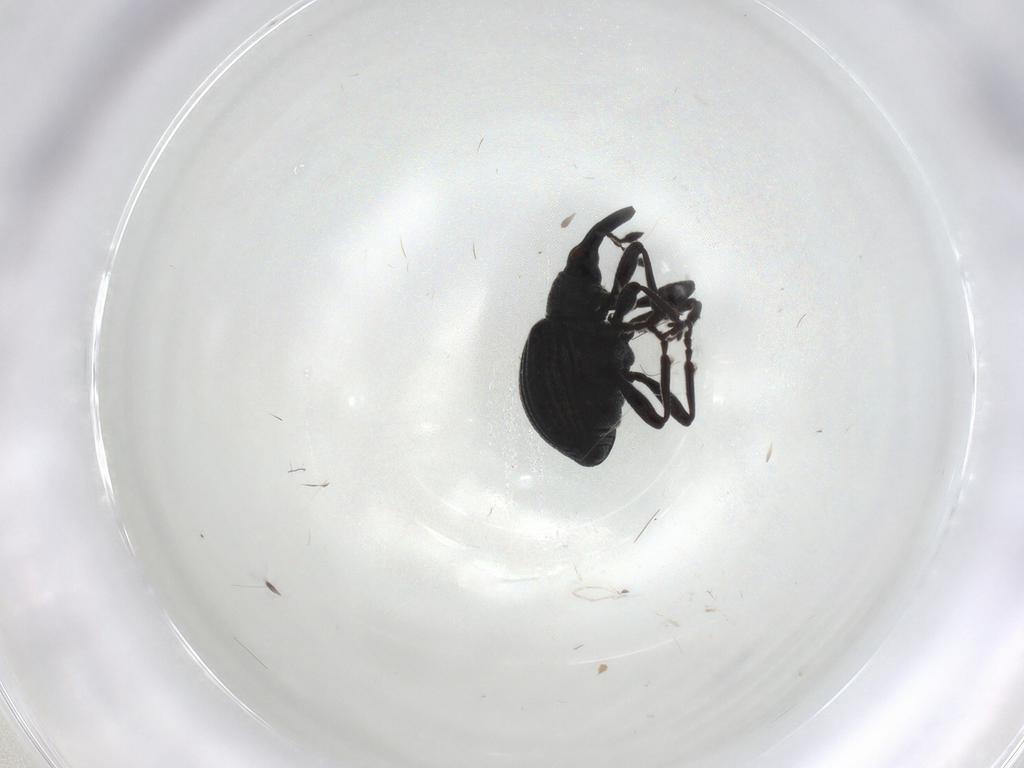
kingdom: Animalia
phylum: Arthropoda
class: Insecta
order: Coleoptera
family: Brentidae
